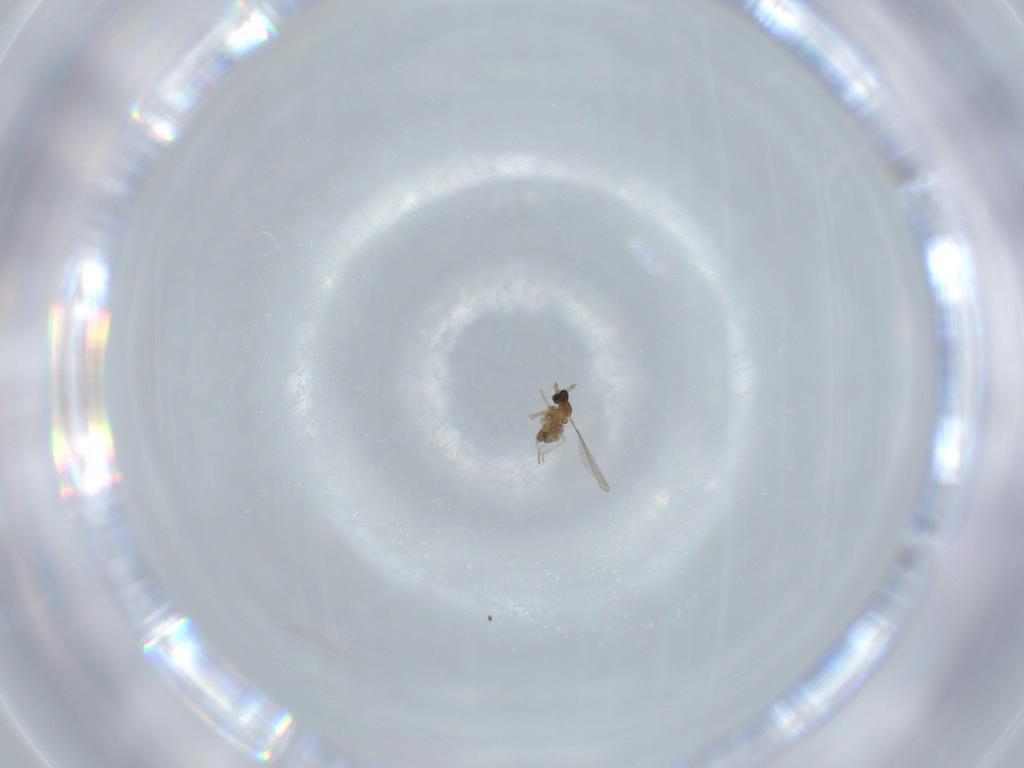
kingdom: Animalia
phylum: Arthropoda
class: Insecta
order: Diptera
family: Cecidomyiidae
